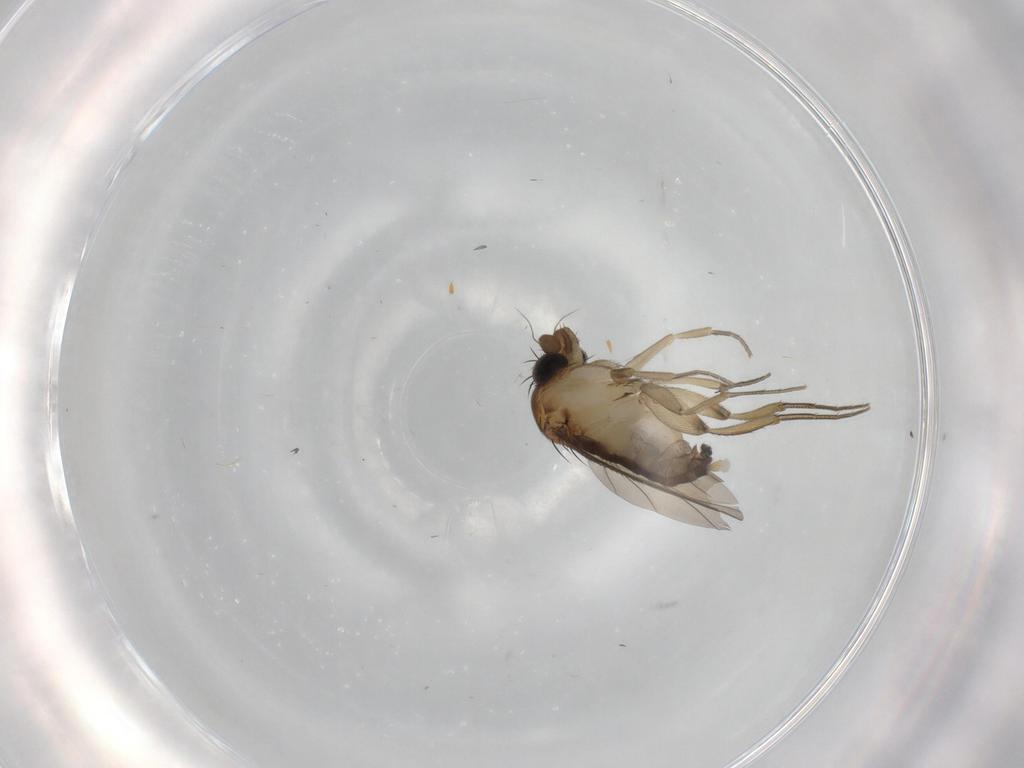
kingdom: Animalia
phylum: Arthropoda
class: Insecta
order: Diptera
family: Phoridae
